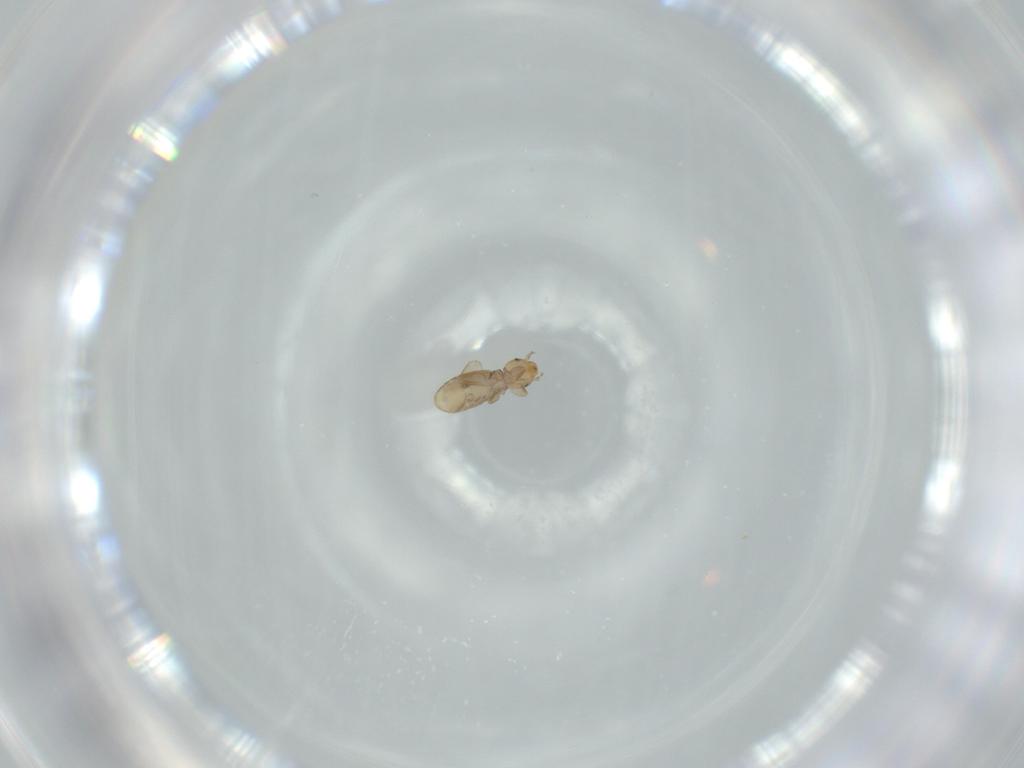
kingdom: Animalia
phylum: Arthropoda
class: Insecta
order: Psocodea
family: Liposcelididae
